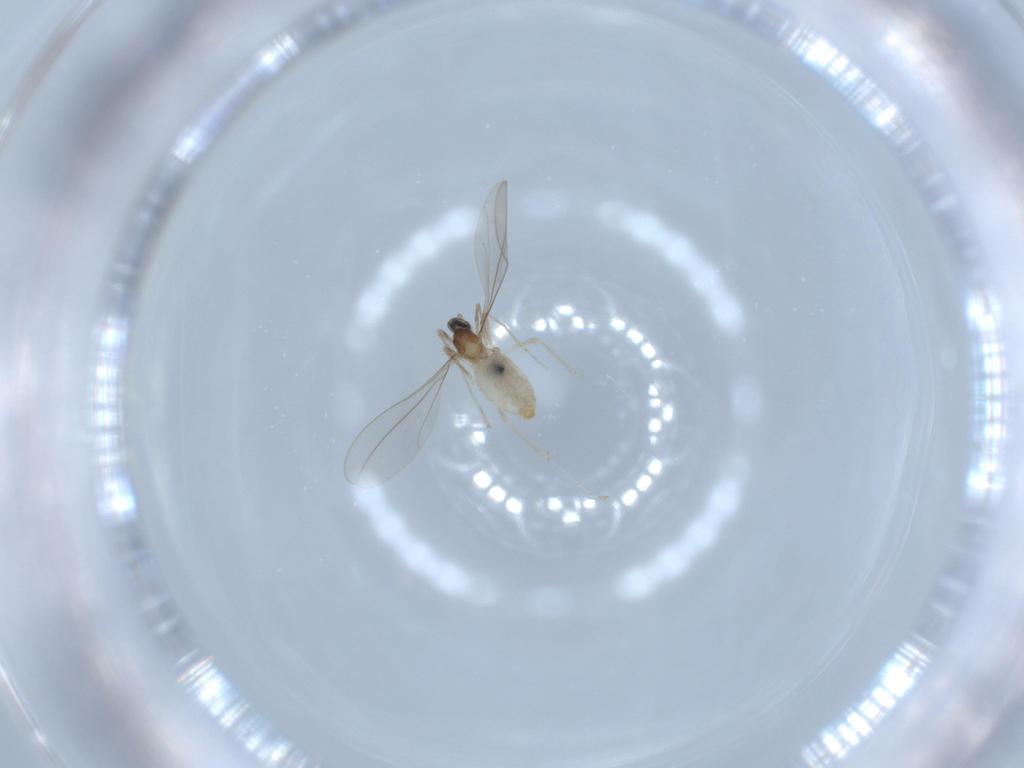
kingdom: Animalia
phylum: Arthropoda
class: Insecta
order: Diptera
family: Cecidomyiidae
